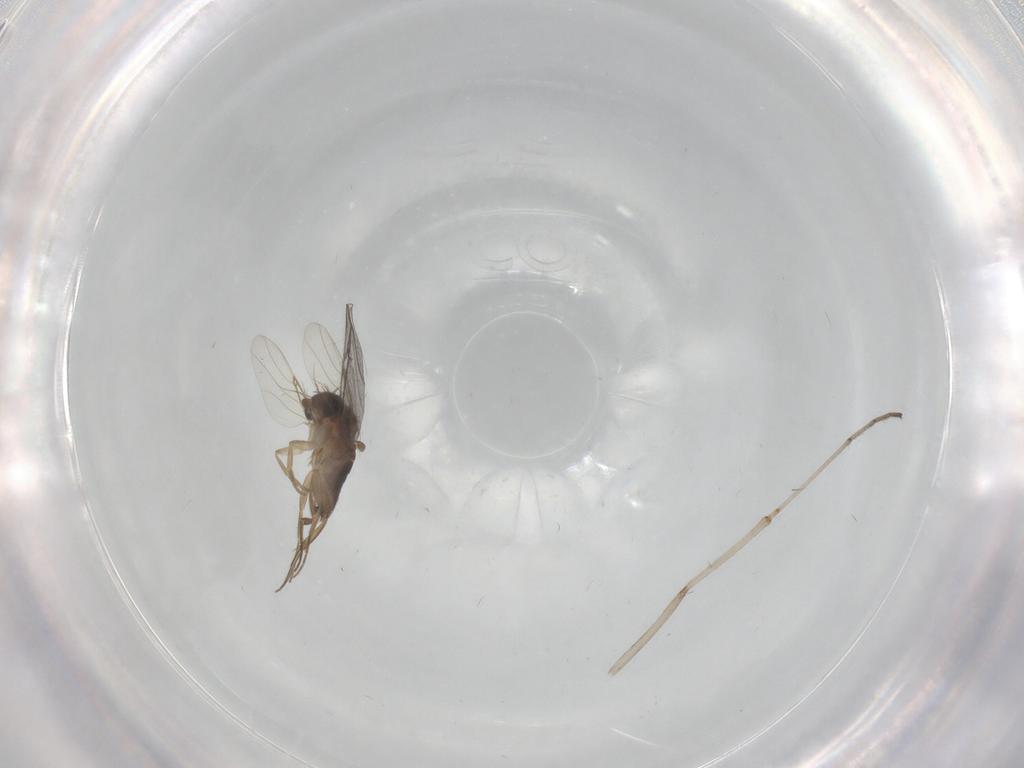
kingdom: Animalia
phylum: Arthropoda
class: Insecta
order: Diptera
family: Phoridae
